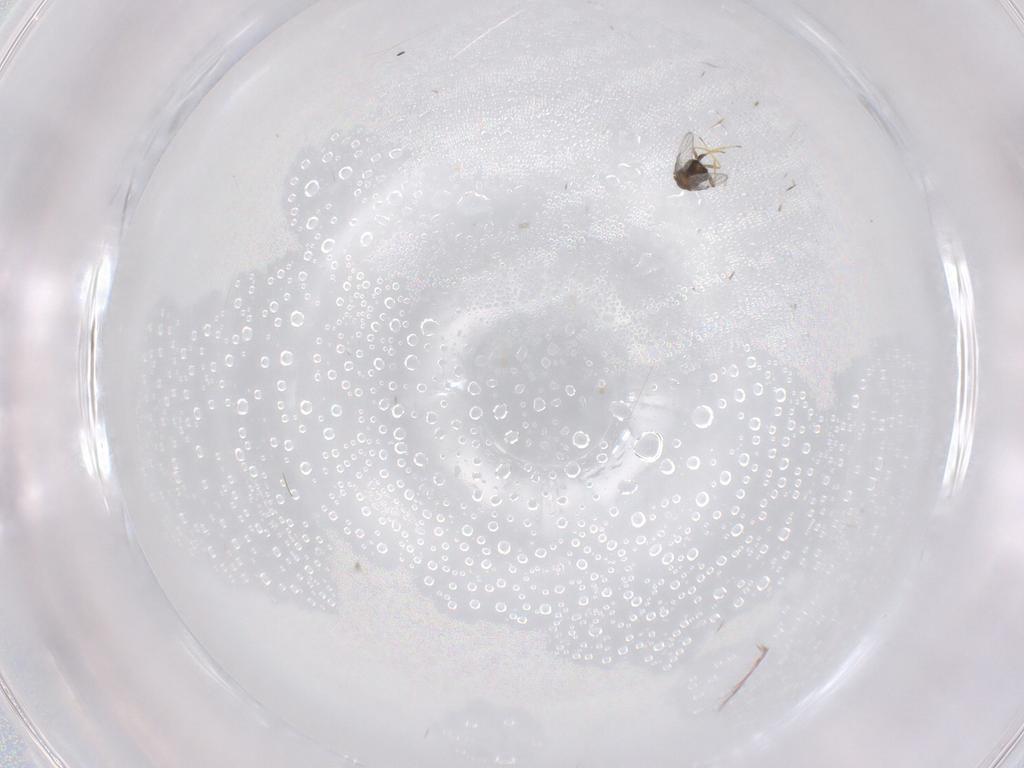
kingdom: Animalia
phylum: Arthropoda
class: Insecta
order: Hymenoptera
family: Trichogrammatidae
